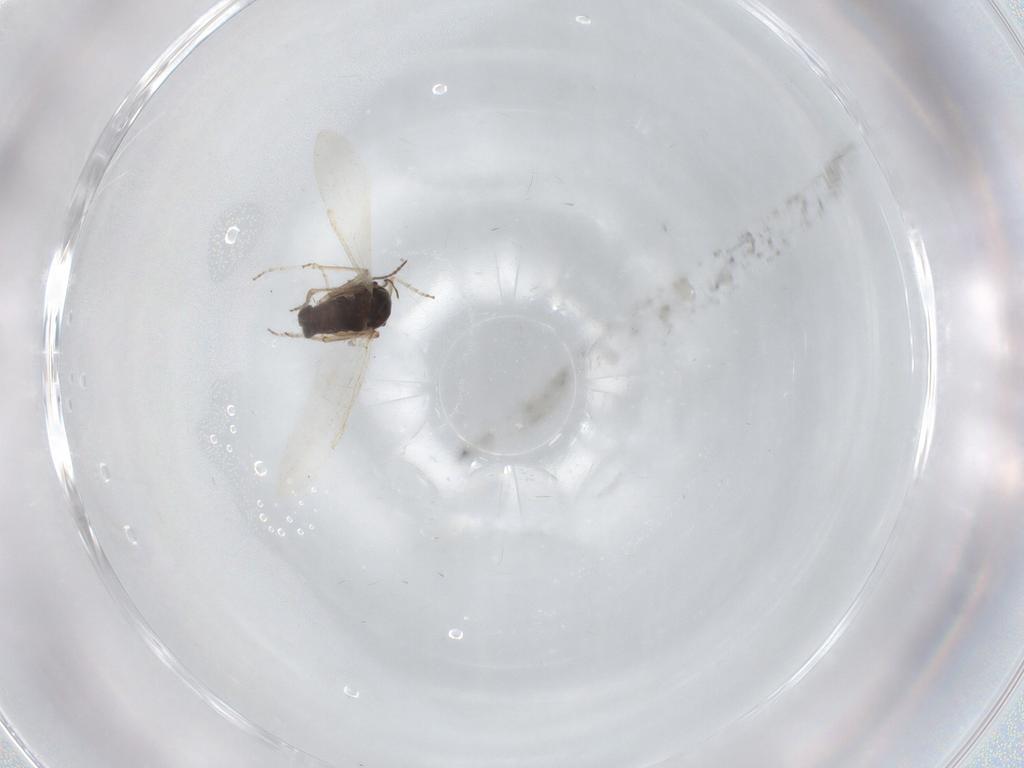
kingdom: Animalia
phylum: Arthropoda
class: Insecta
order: Diptera
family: Ceratopogonidae
